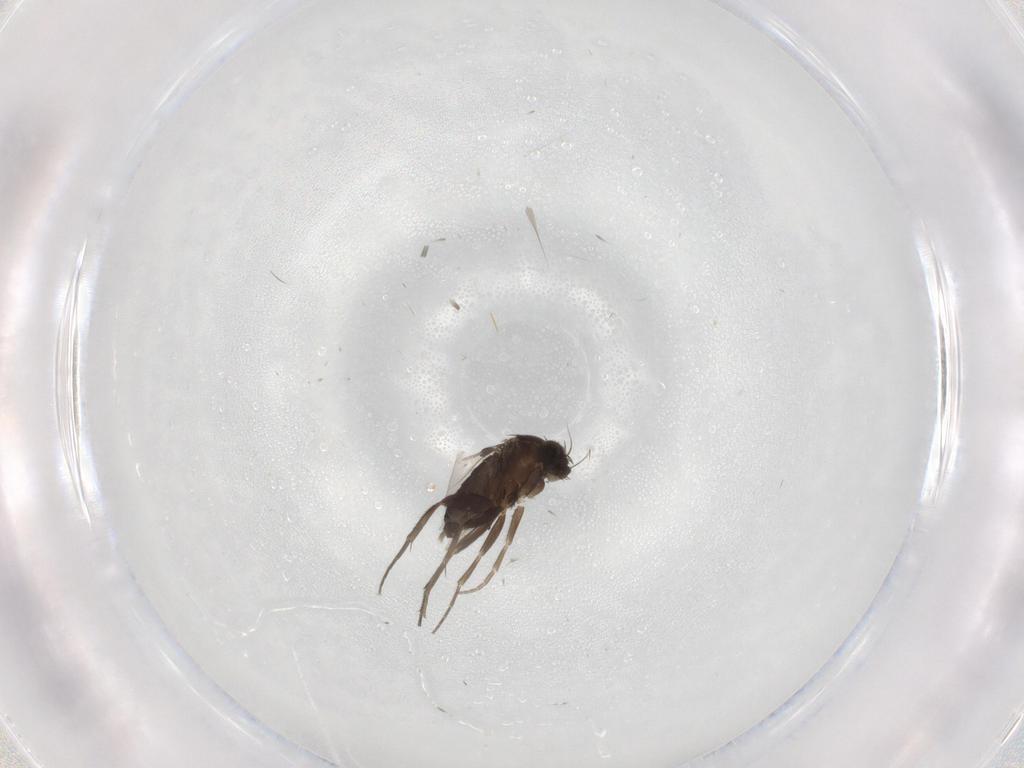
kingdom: Animalia
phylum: Arthropoda
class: Insecta
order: Diptera
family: Phoridae
